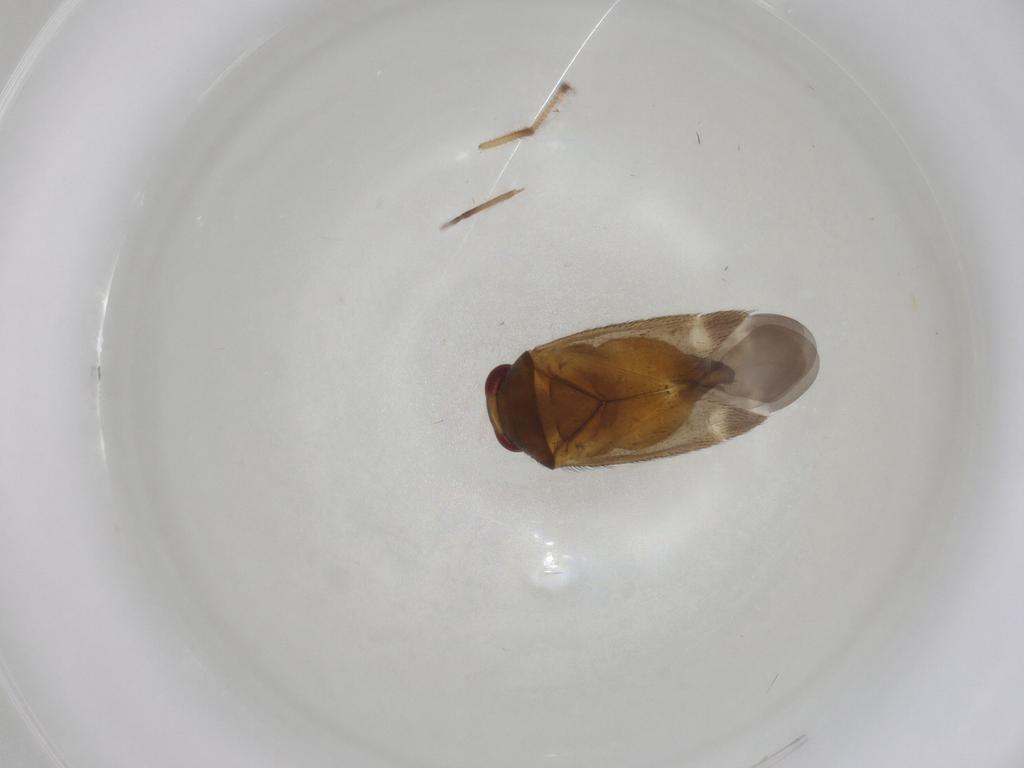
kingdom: Animalia
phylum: Arthropoda
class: Insecta
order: Hemiptera
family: Miridae
